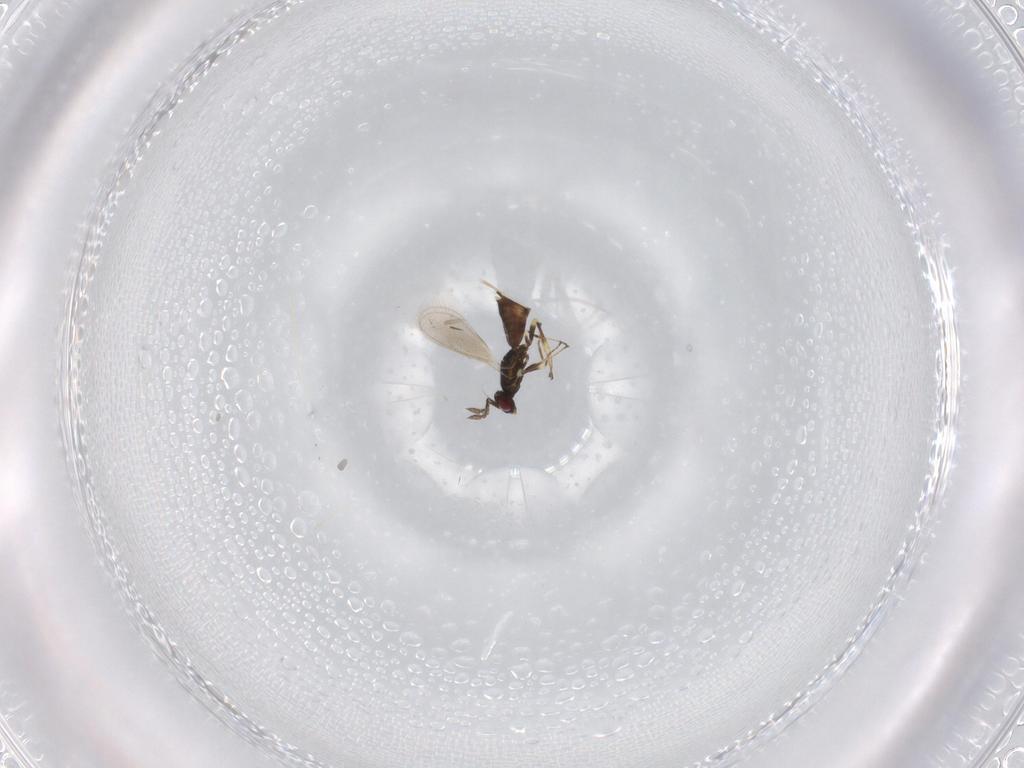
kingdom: Animalia
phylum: Arthropoda
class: Insecta
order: Hymenoptera
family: Eulophidae
